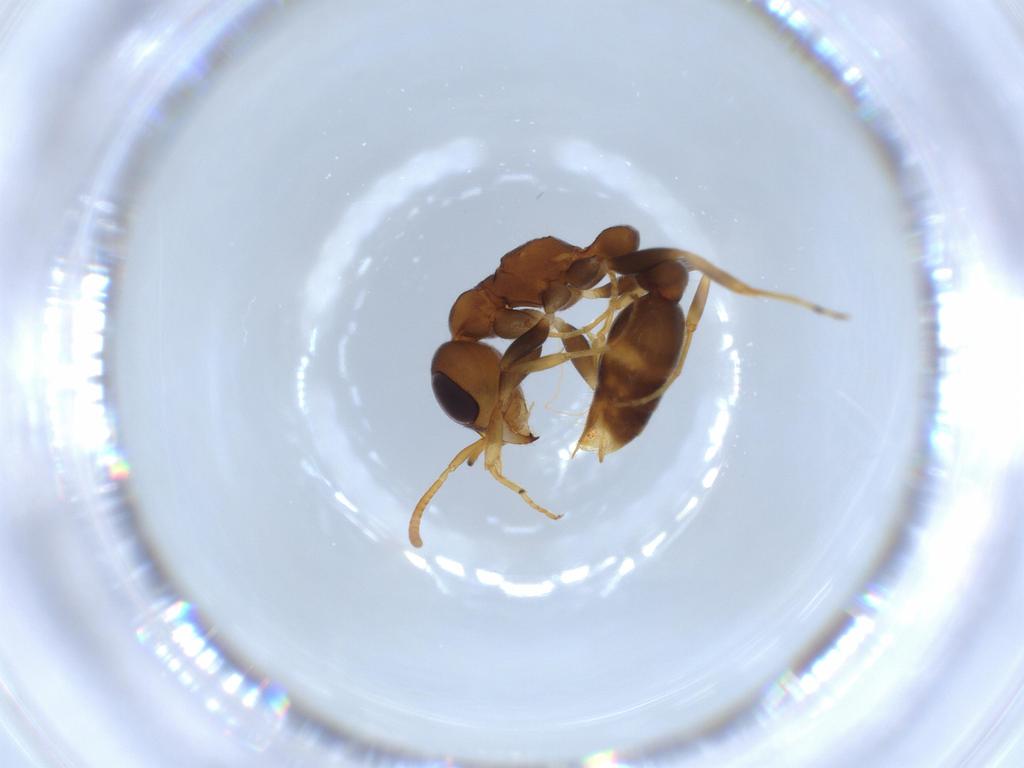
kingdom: Animalia
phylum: Arthropoda
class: Insecta
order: Hymenoptera
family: Formicidae
